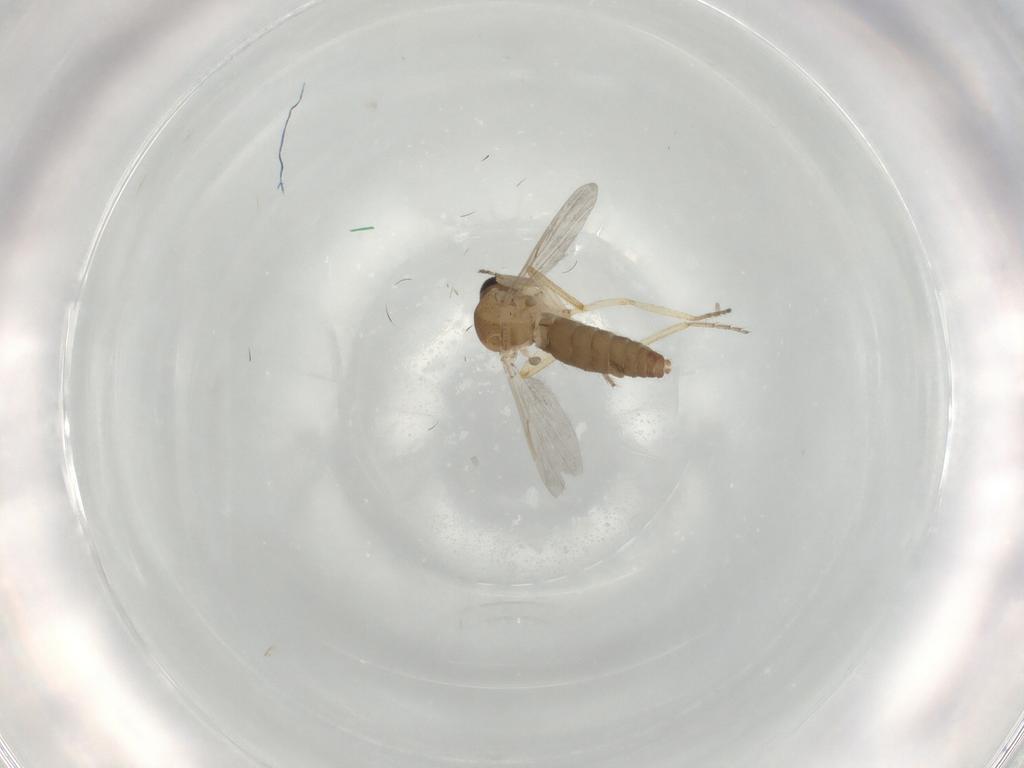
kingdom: Animalia
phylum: Arthropoda
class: Insecta
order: Diptera
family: Ceratopogonidae
